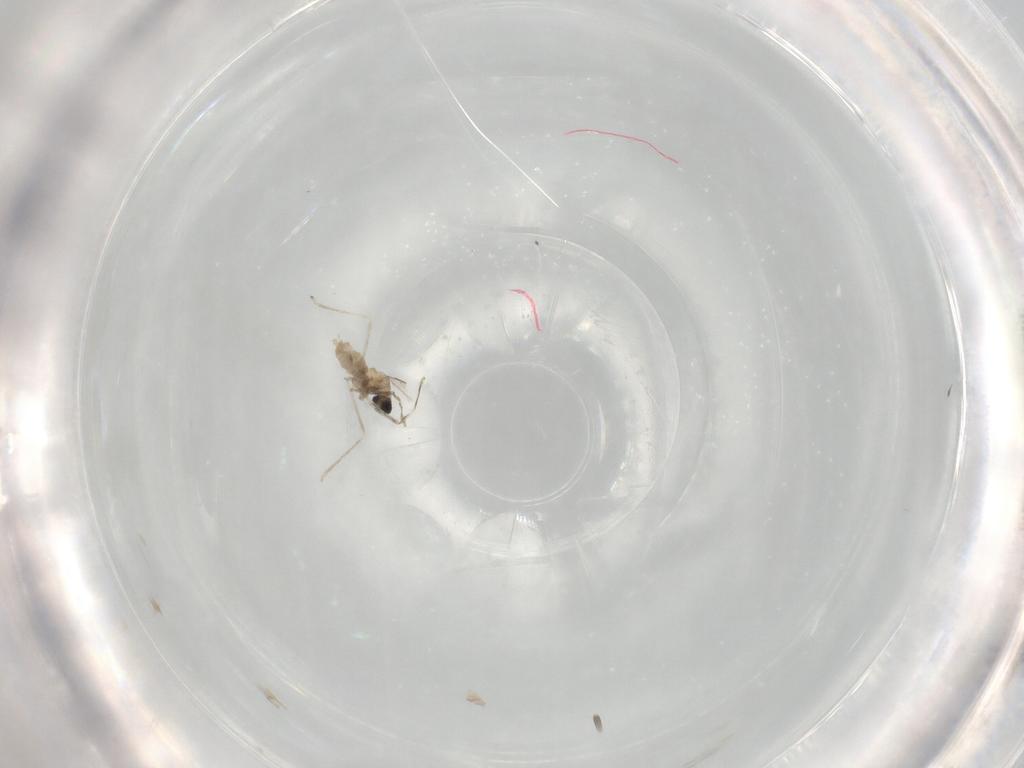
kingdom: Animalia
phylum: Arthropoda
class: Insecta
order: Diptera
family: Cecidomyiidae
